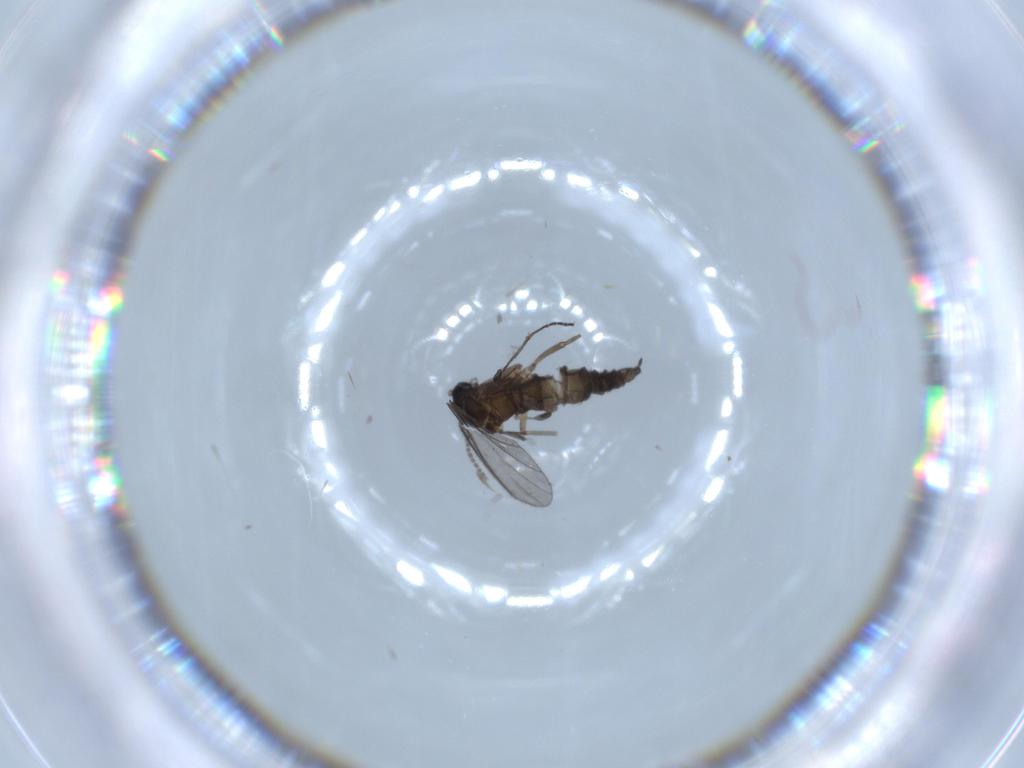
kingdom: Animalia
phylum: Arthropoda
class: Insecta
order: Diptera
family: Sciaridae
